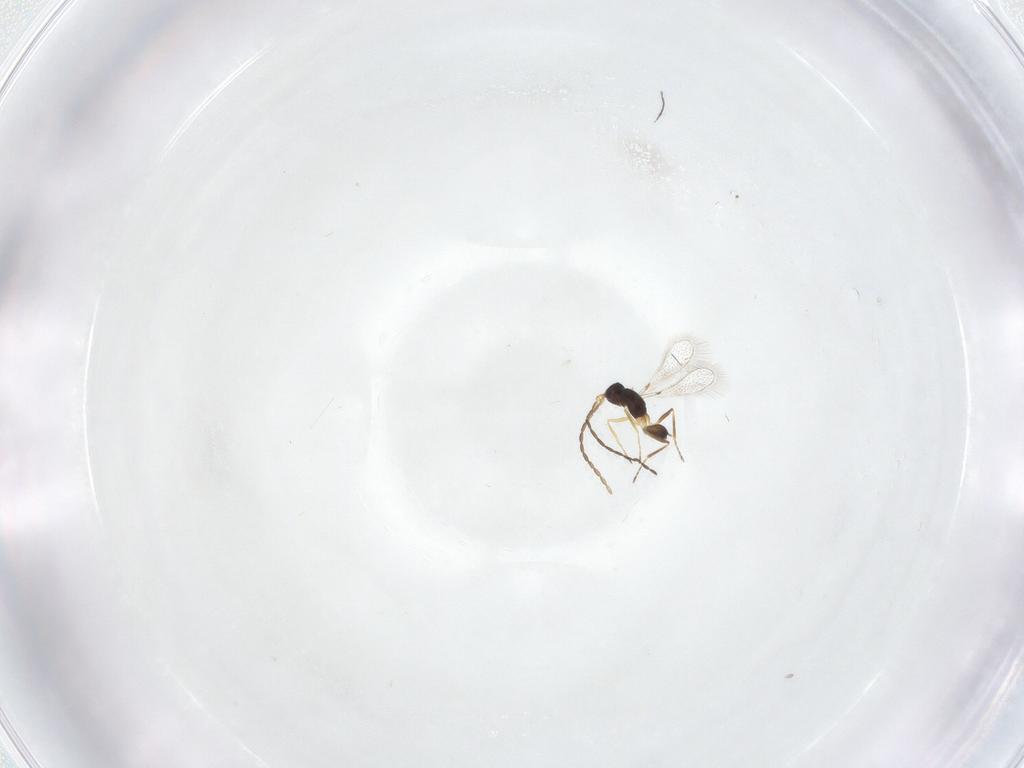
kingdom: Animalia
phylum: Arthropoda
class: Insecta
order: Hymenoptera
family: Mymaridae
